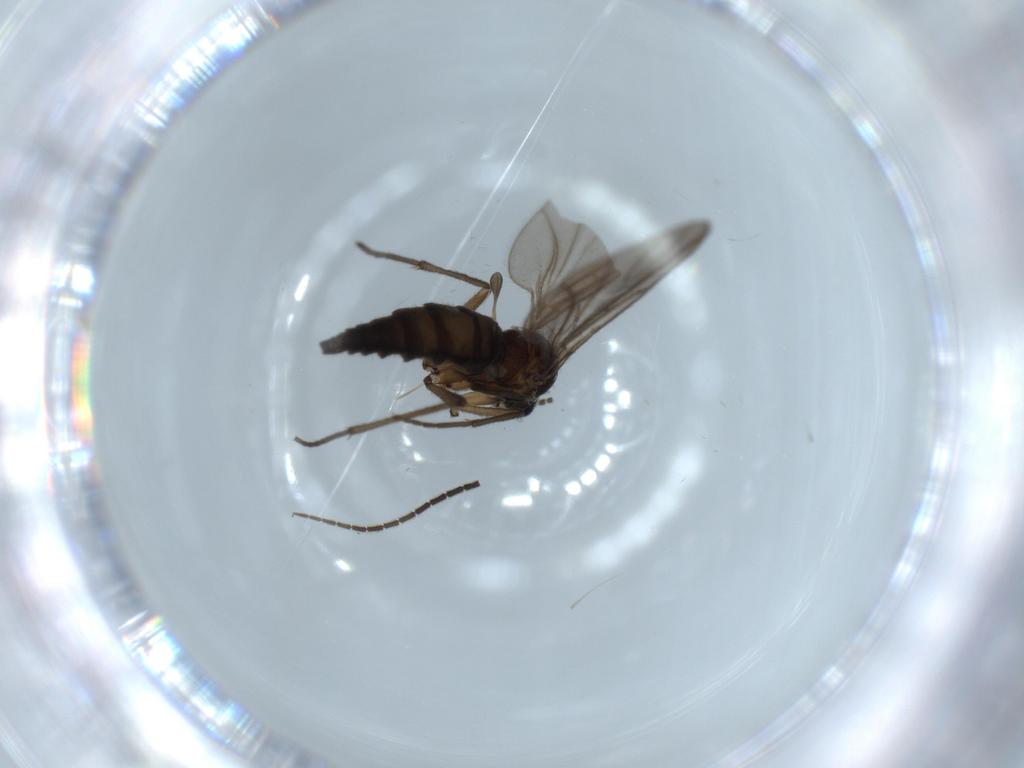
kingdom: Animalia
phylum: Arthropoda
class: Insecta
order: Diptera
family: Sciaridae
